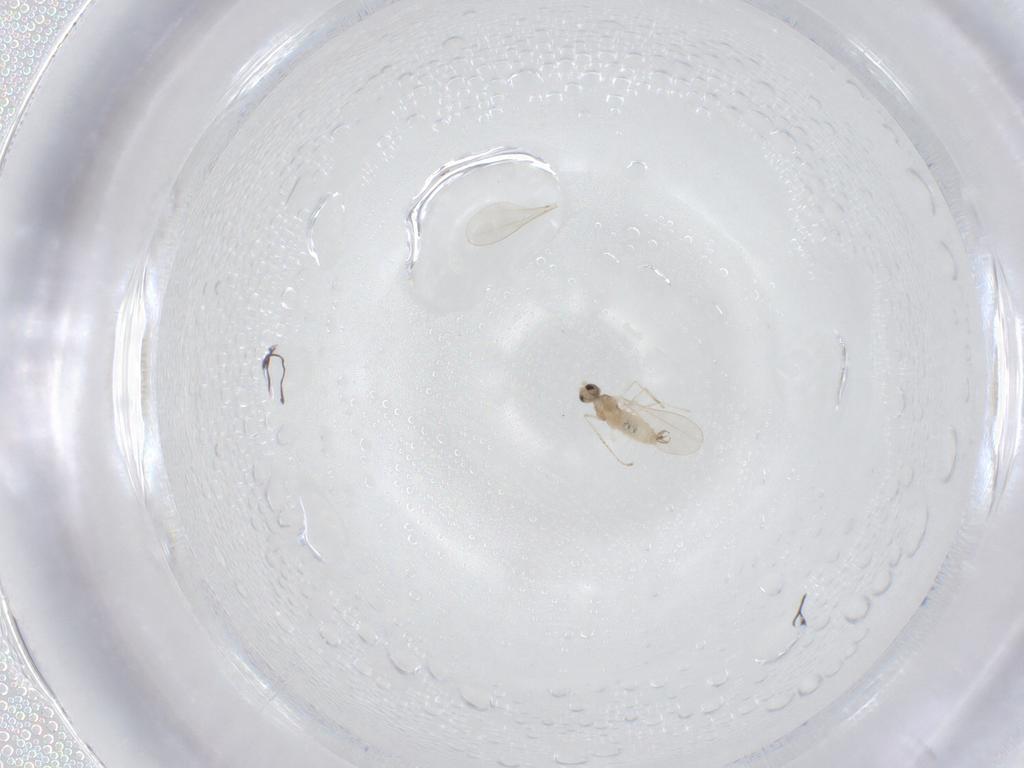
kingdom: Animalia
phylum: Arthropoda
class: Insecta
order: Diptera
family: Cecidomyiidae
